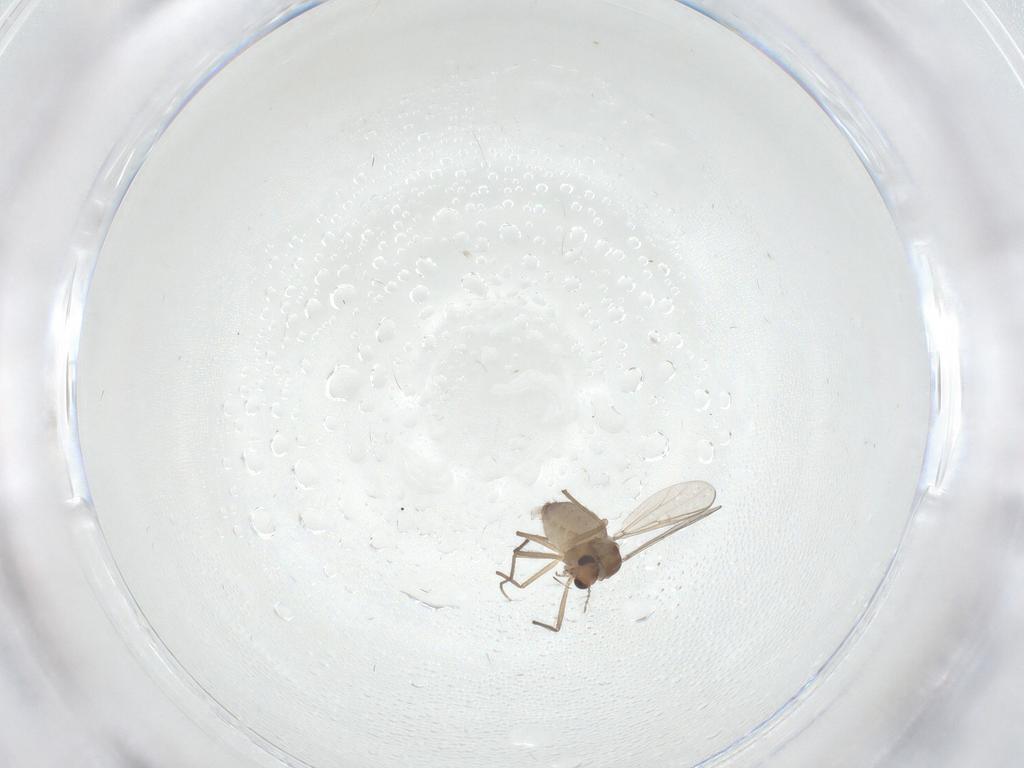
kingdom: Animalia
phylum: Arthropoda
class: Insecta
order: Diptera
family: Chironomidae
